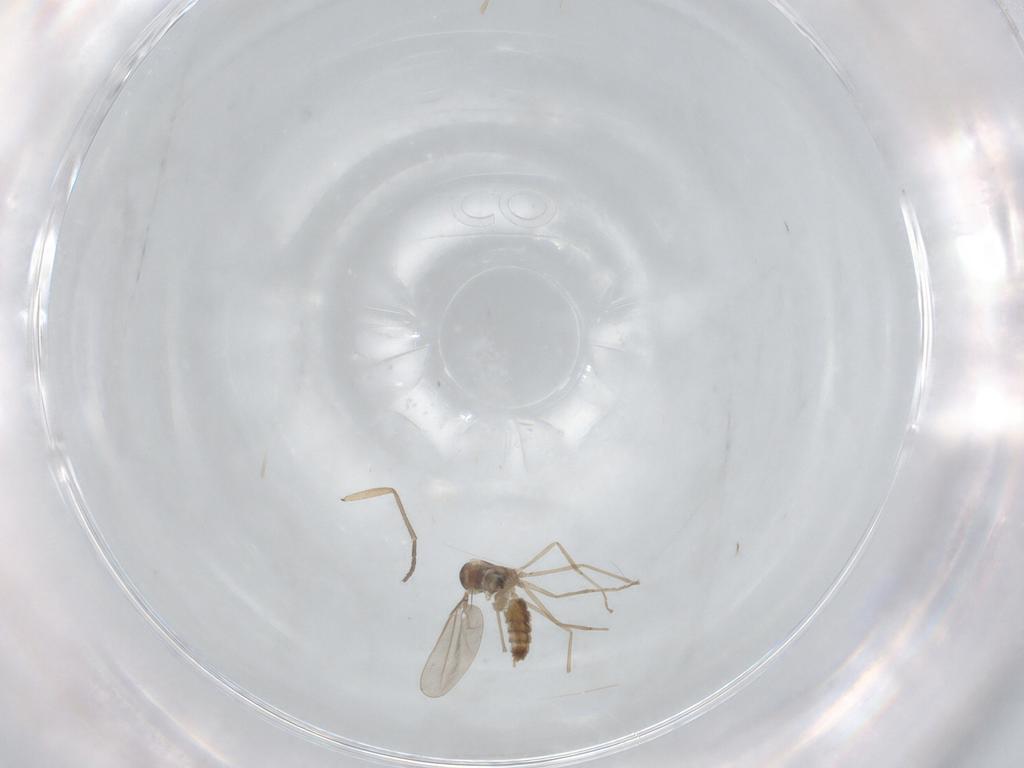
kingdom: Animalia
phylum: Arthropoda
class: Insecta
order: Diptera
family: Cecidomyiidae
